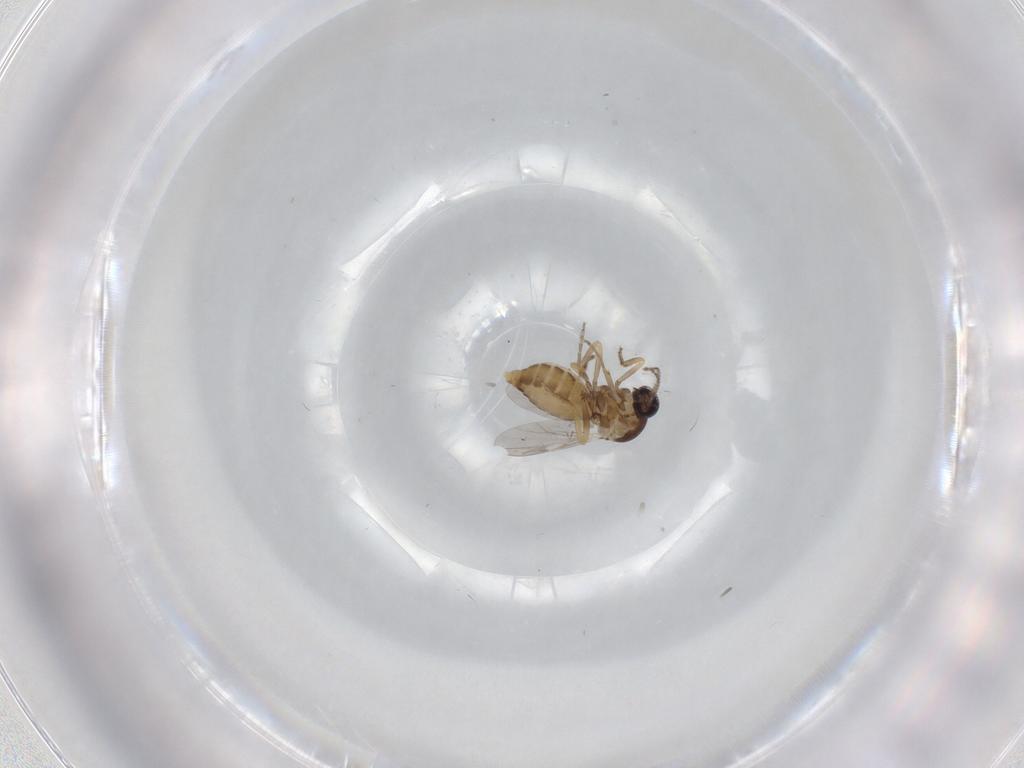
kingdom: Animalia
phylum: Arthropoda
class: Insecta
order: Diptera
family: Ceratopogonidae
